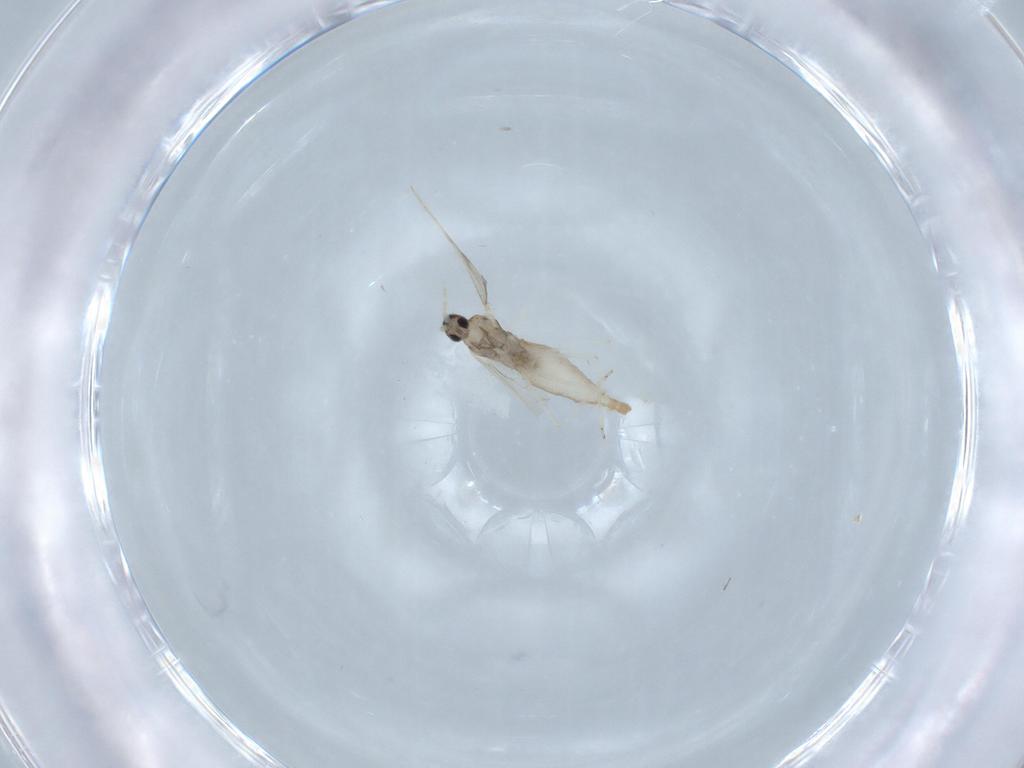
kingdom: Animalia
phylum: Arthropoda
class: Insecta
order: Diptera
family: Cecidomyiidae
